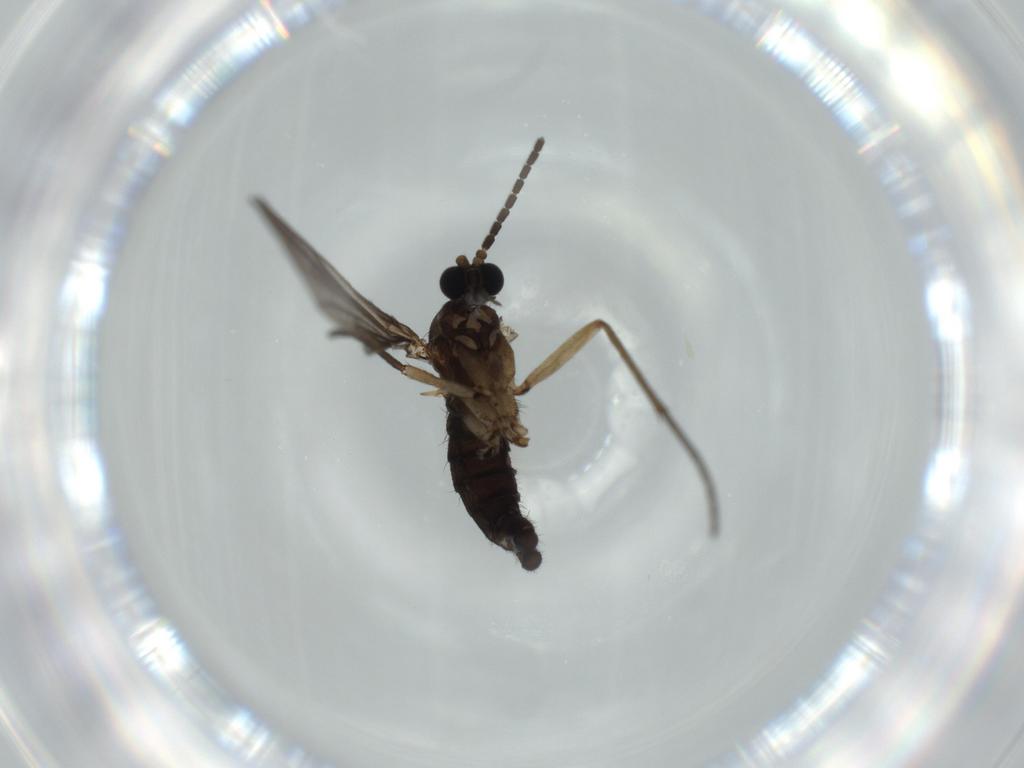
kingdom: Animalia
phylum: Arthropoda
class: Insecta
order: Diptera
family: Sciaridae
